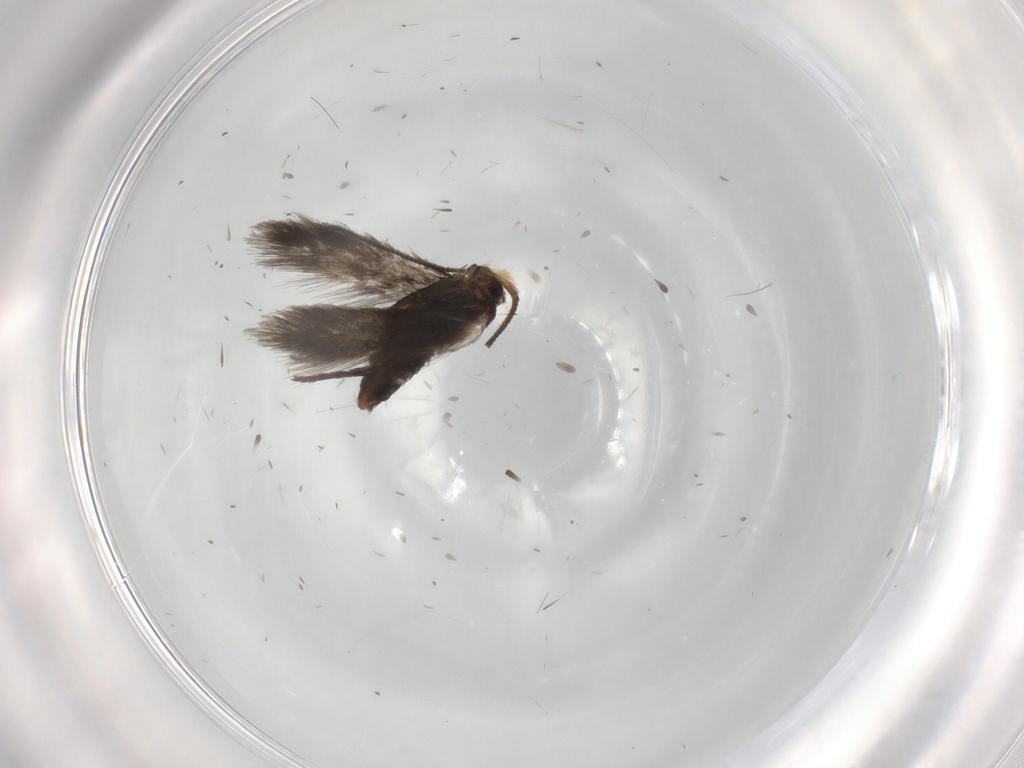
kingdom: Animalia
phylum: Arthropoda
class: Insecta
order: Lepidoptera
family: Nepticulidae
